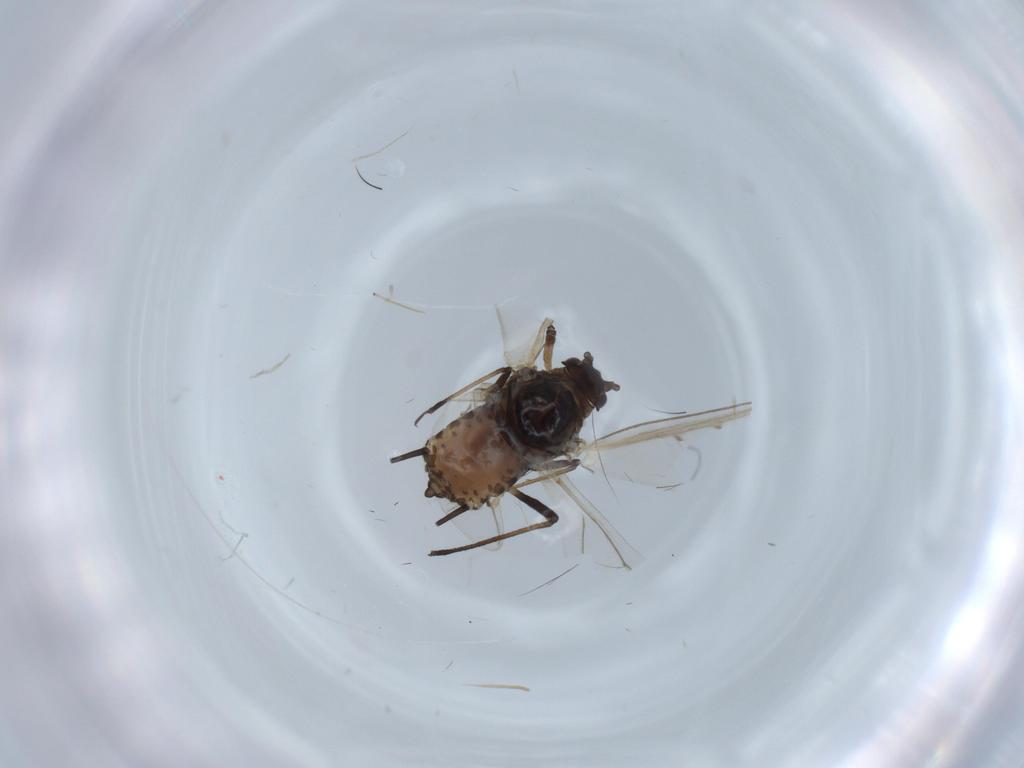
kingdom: Animalia
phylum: Arthropoda
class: Insecta
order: Hemiptera
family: Aphididae
